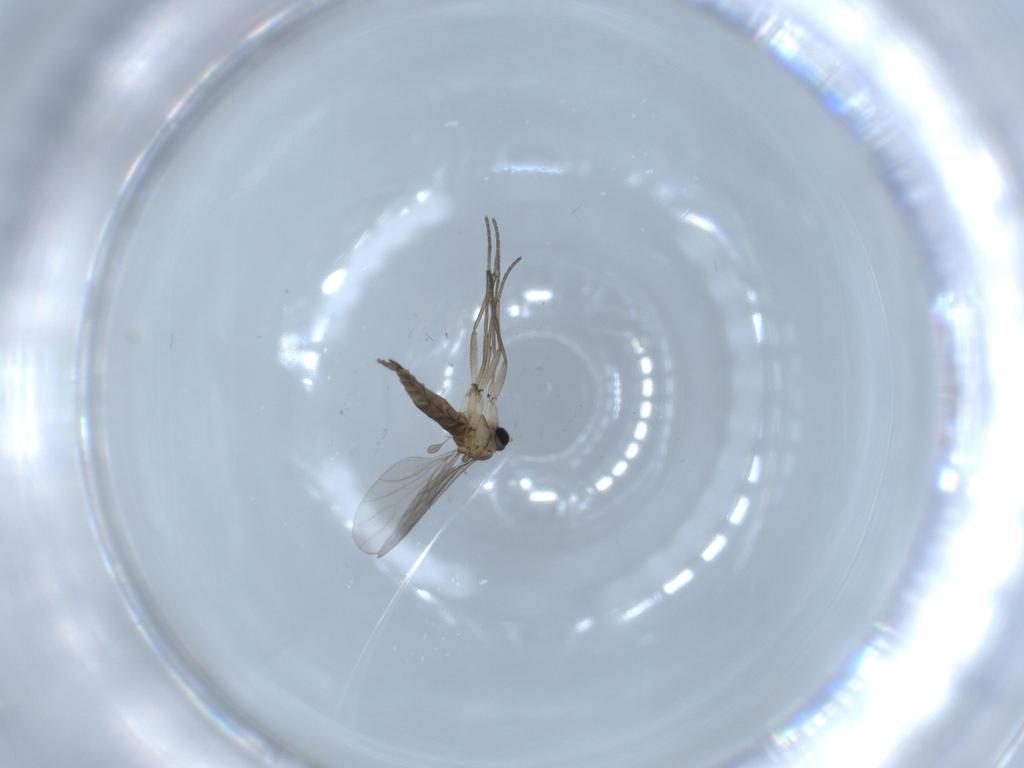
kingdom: Animalia
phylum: Arthropoda
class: Insecta
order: Diptera
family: Sciaridae
